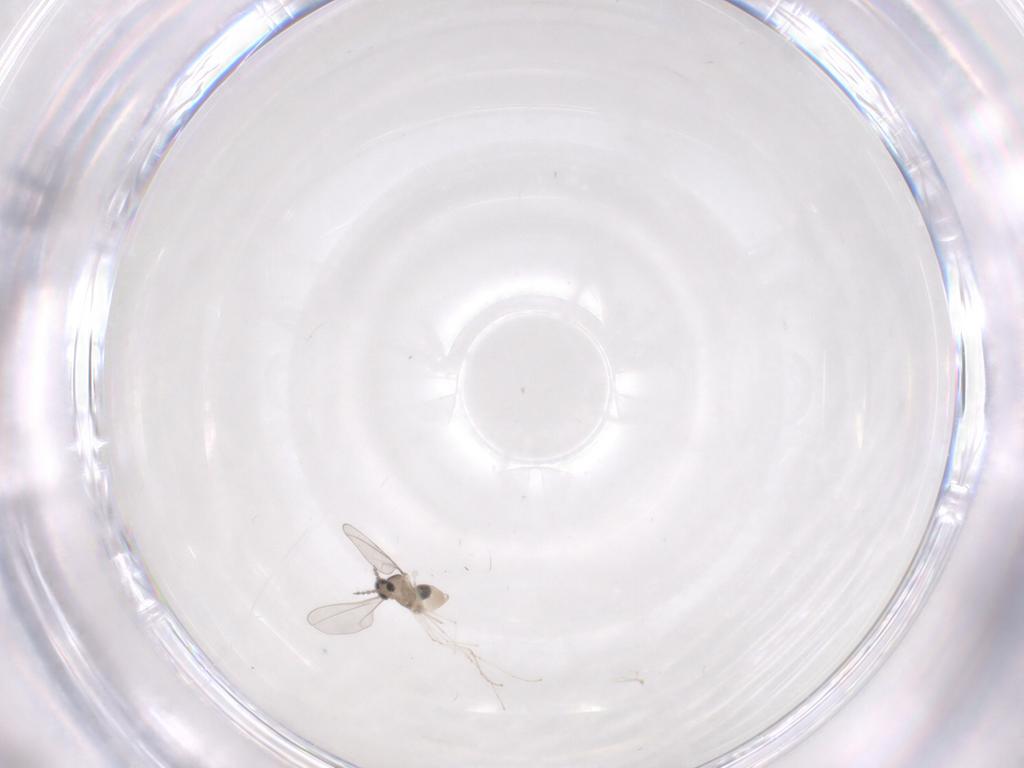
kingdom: Animalia
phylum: Arthropoda
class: Insecta
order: Diptera
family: Cecidomyiidae
